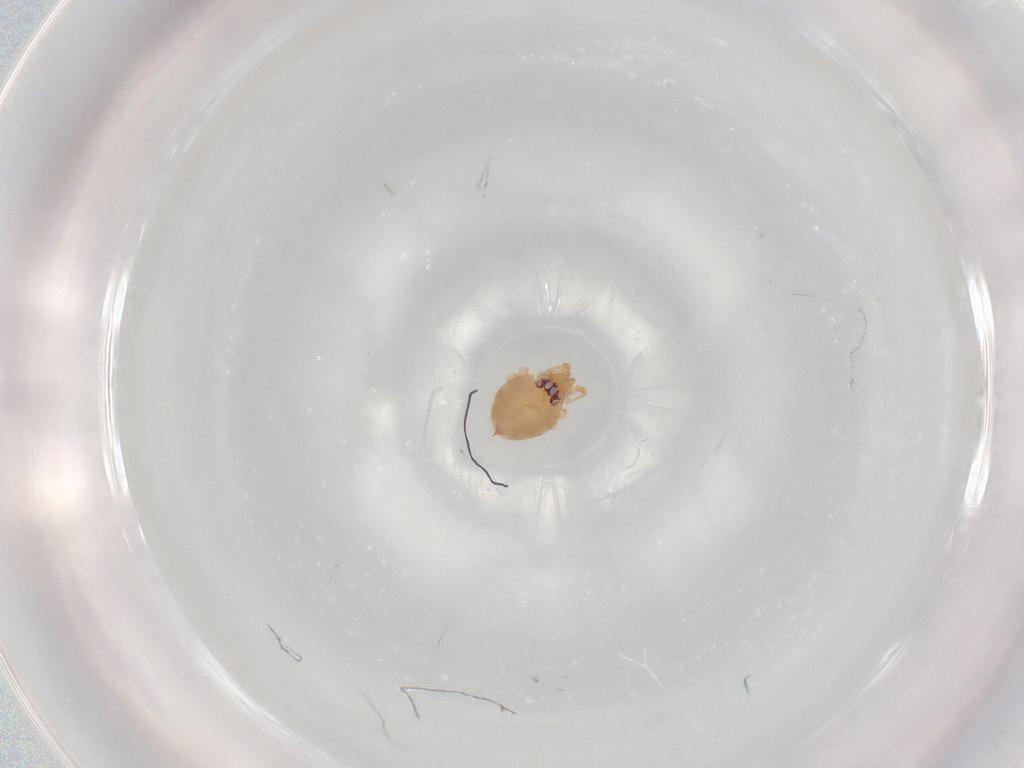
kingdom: Animalia
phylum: Arthropoda
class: Arachnida
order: Araneae
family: Oonopidae
